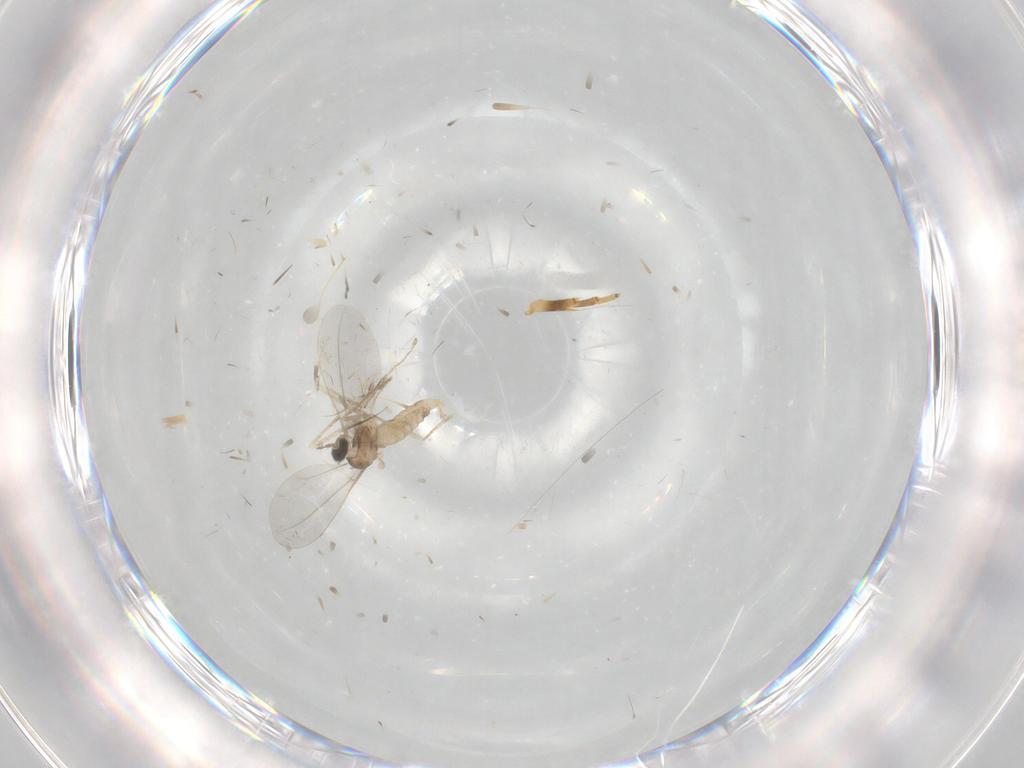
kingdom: Animalia
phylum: Arthropoda
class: Insecta
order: Diptera
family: Cecidomyiidae
